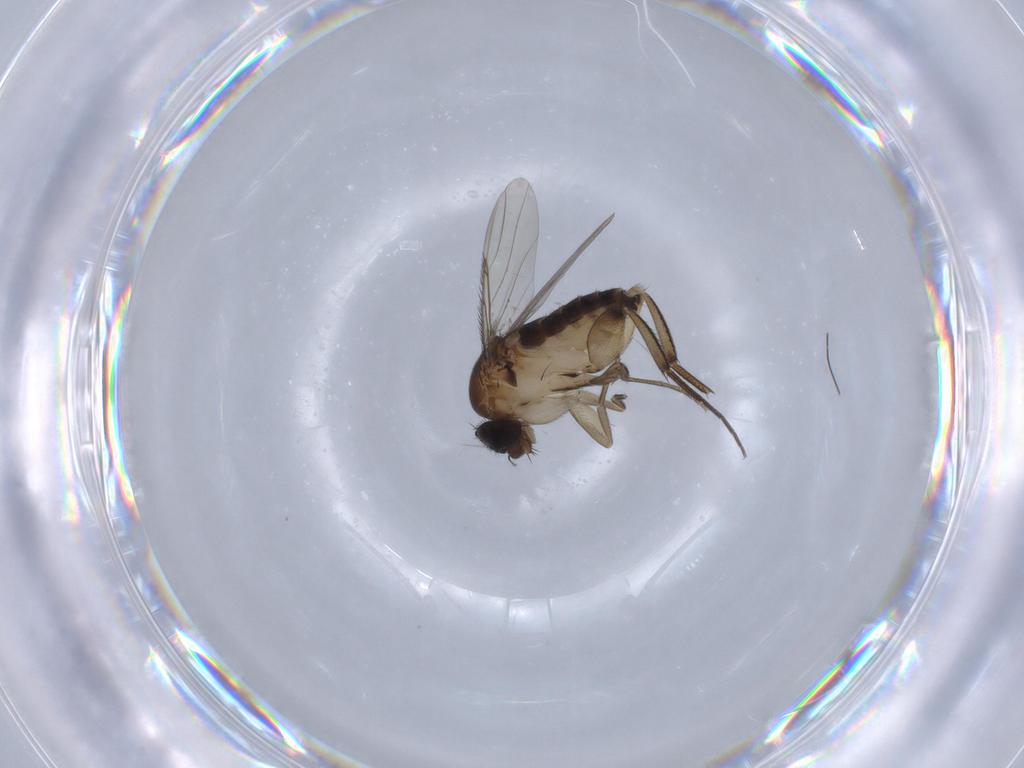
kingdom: Animalia
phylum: Arthropoda
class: Insecta
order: Diptera
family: Phoridae
